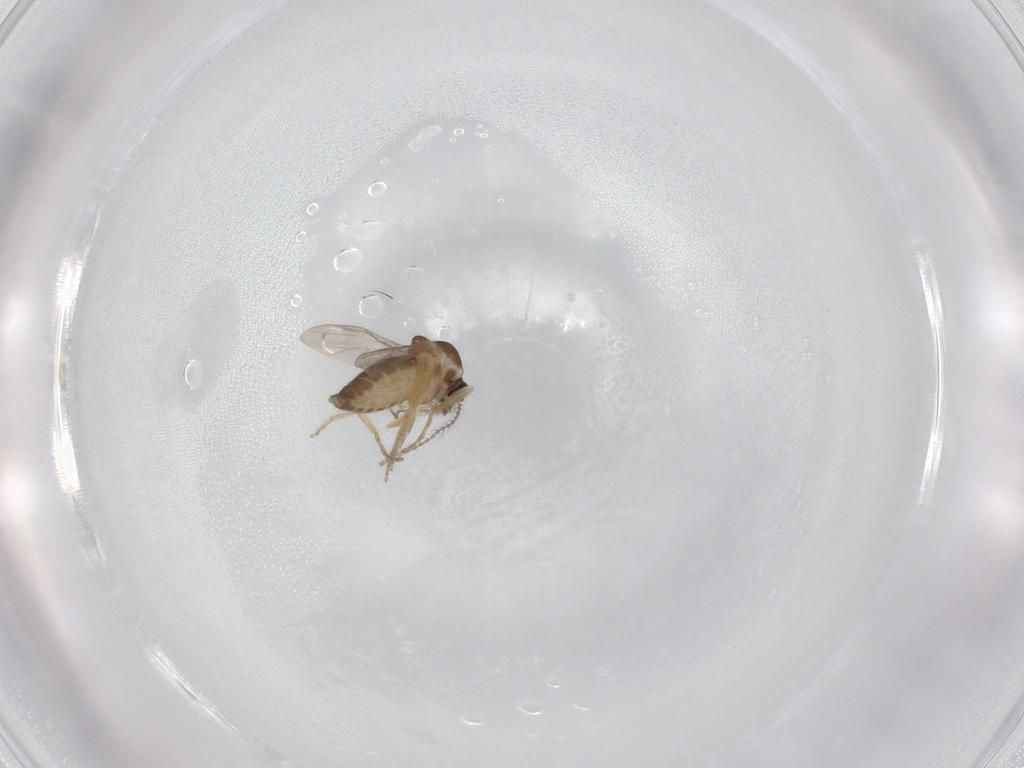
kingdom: Animalia
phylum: Arthropoda
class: Insecta
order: Diptera
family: Ceratopogonidae
